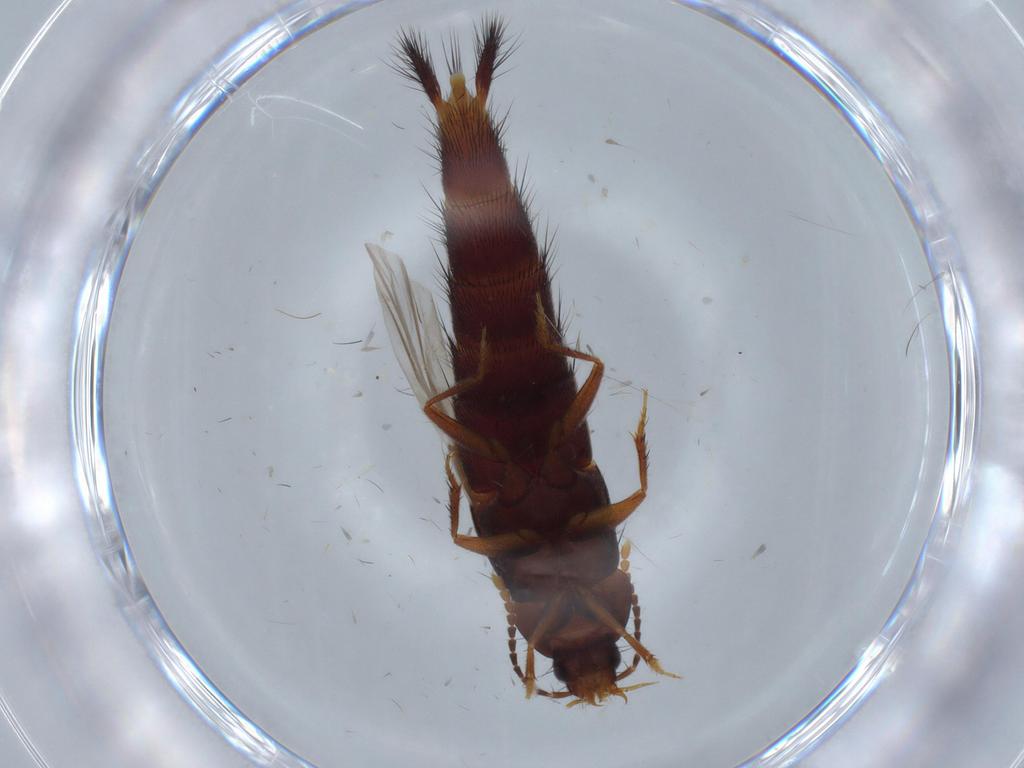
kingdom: Animalia
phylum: Arthropoda
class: Insecta
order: Coleoptera
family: Staphylinidae
